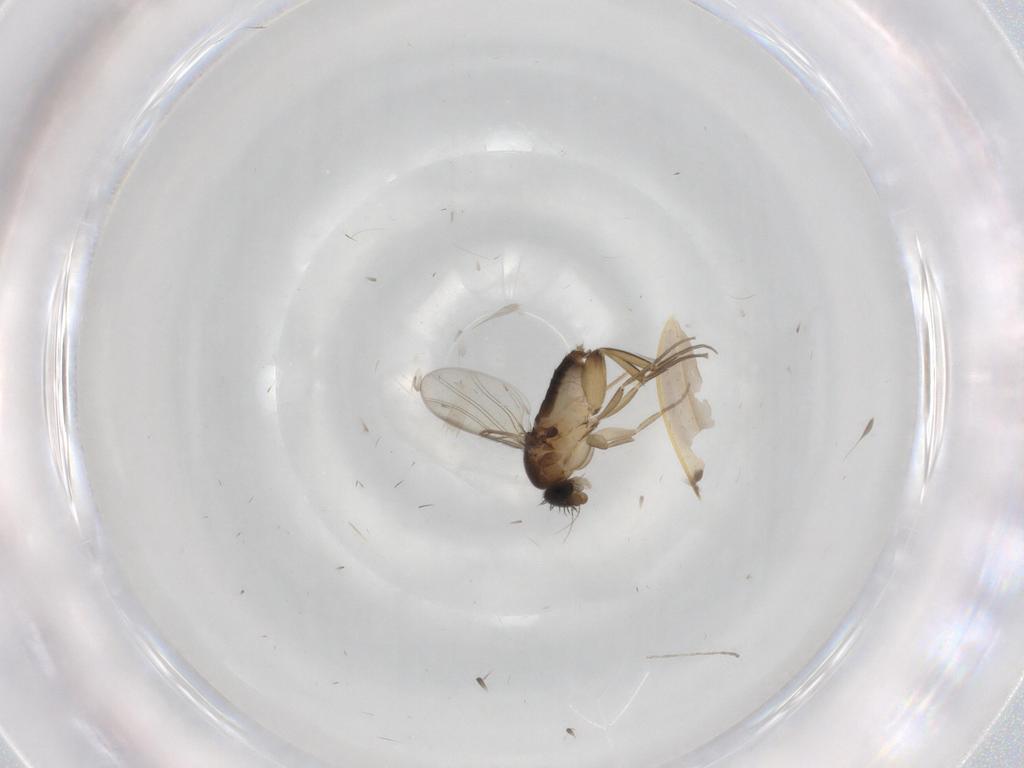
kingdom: Animalia
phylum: Arthropoda
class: Insecta
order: Diptera
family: Phoridae
